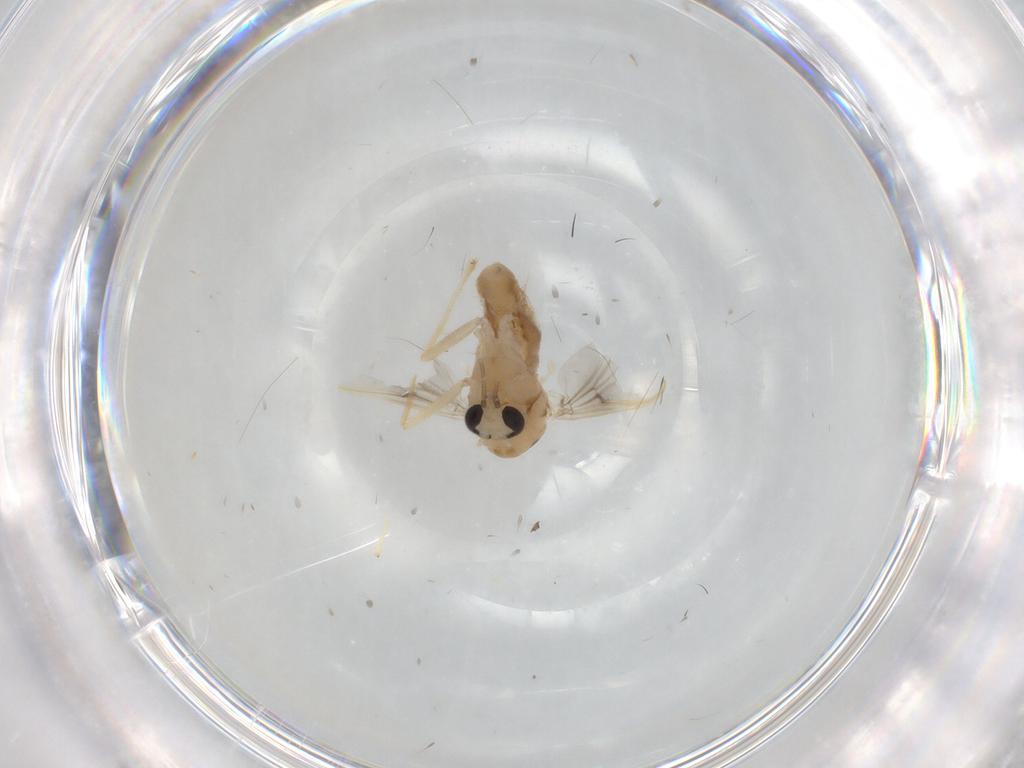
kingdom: Animalia
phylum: Arthropoda
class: Insecta
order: Diptera
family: Chironomidae
